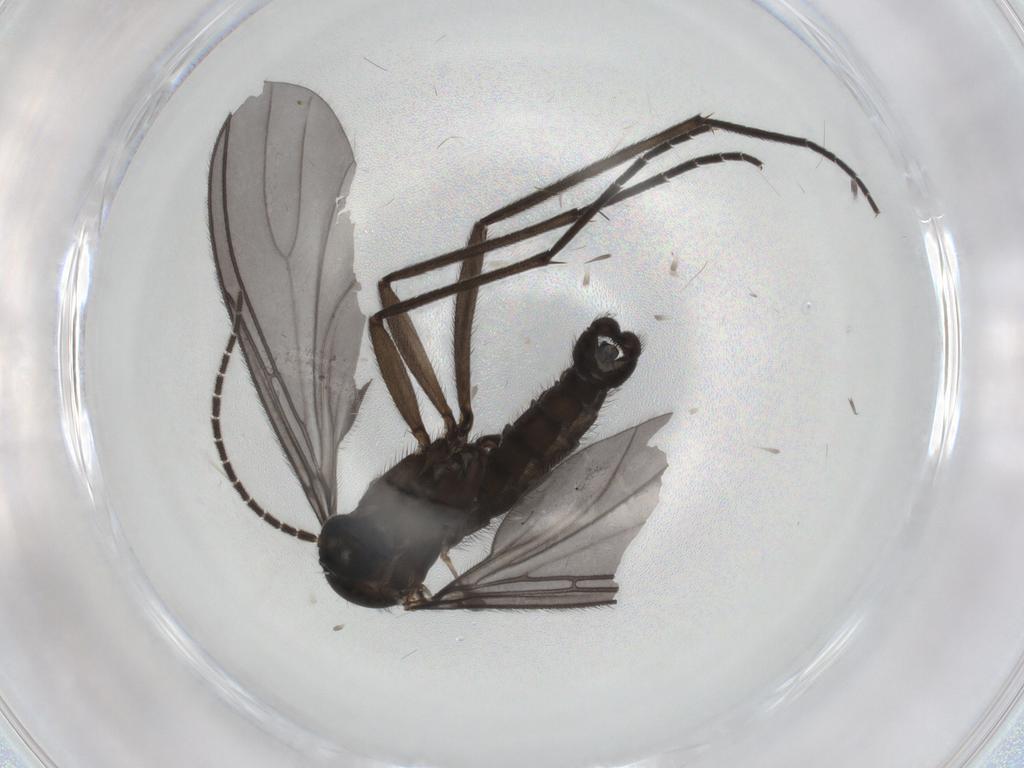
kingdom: Animalia
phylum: Arthropoda
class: Insecta
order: Diptera
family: Sciaridae
